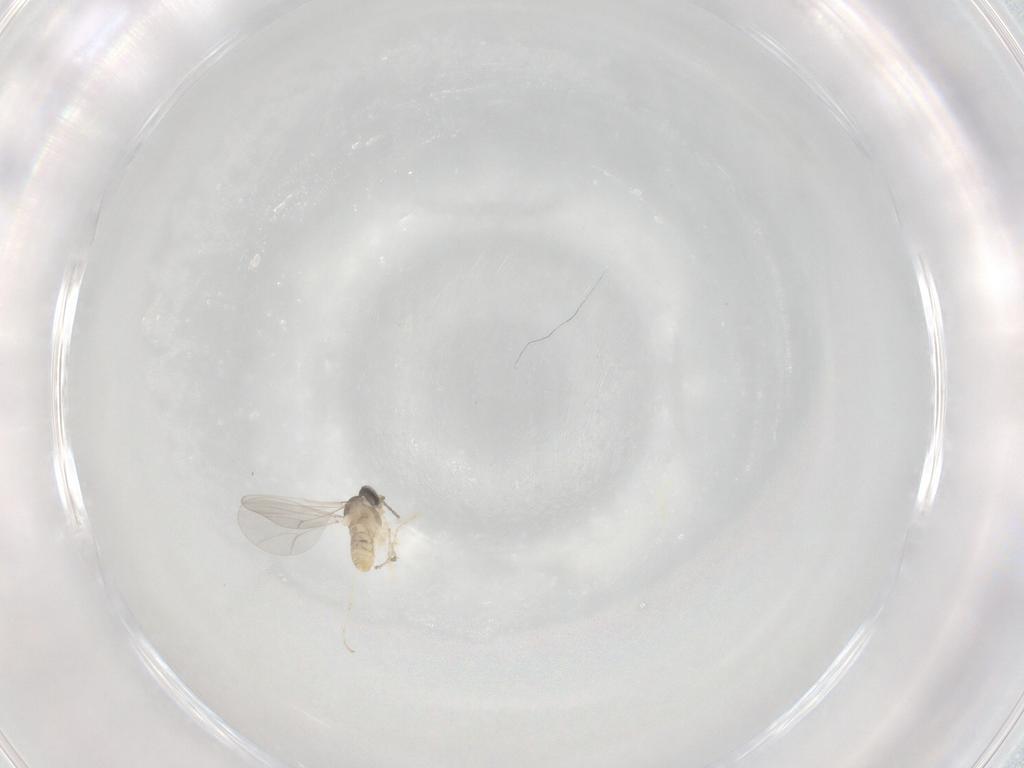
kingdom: Animalia
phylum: Arthropoda
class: Insecta
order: Diptera
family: Cecidomyiidae
